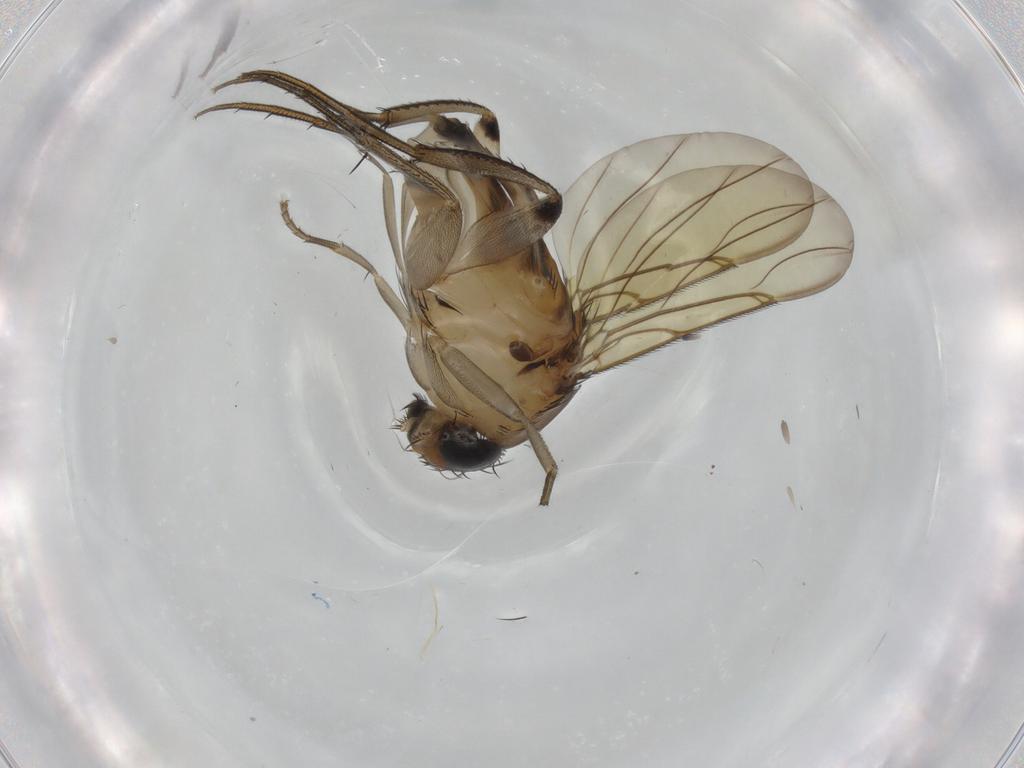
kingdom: Animalia
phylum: Arthropoda
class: Insecta
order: Diptera
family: Phoridae
